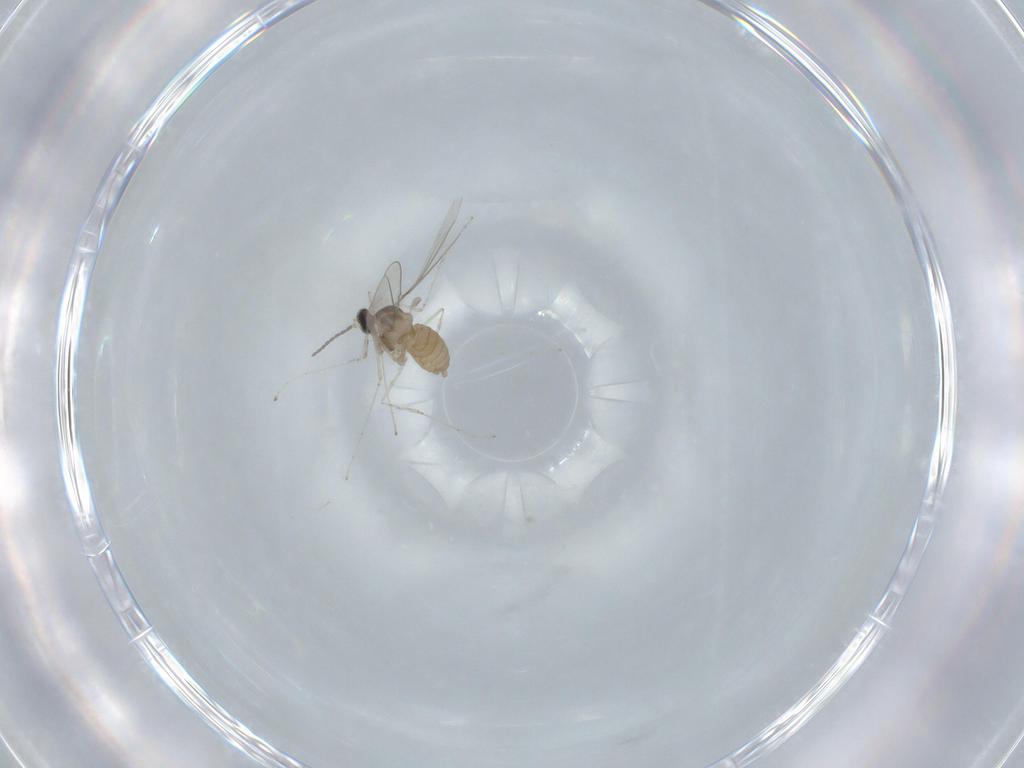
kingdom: Animalia
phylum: Arthropoda
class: Insecta
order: Diptera
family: Cecidomyiidae
